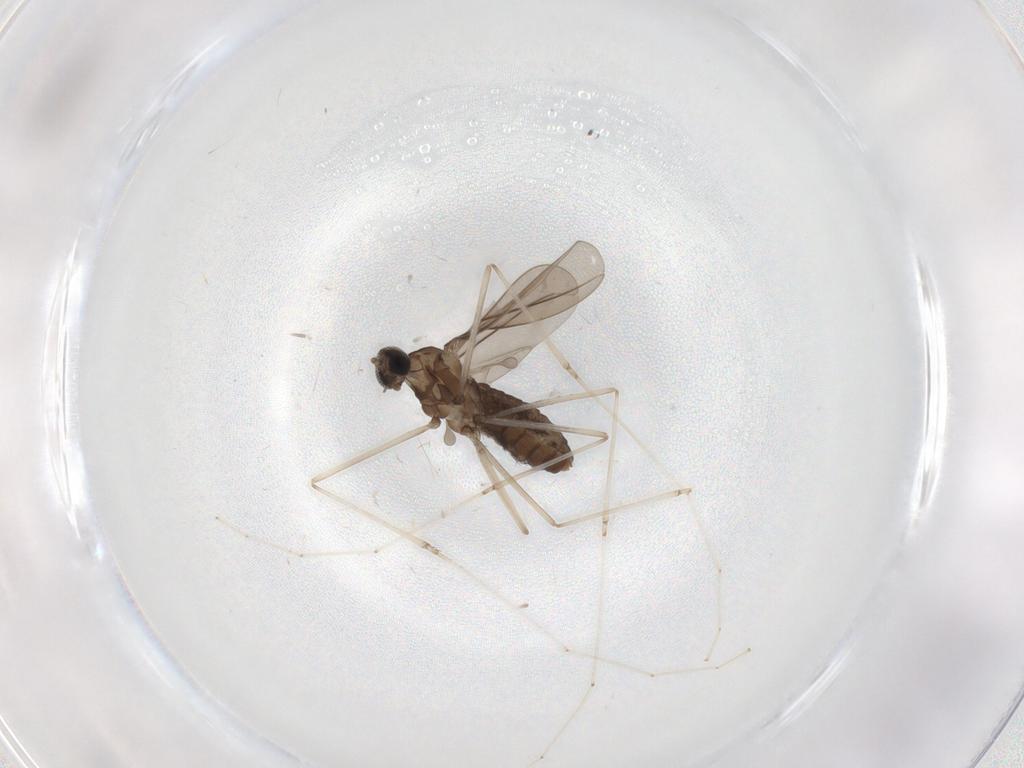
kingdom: Animalia
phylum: Arthropoda
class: Insecta
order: Diptera
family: Cecidomyiidae
